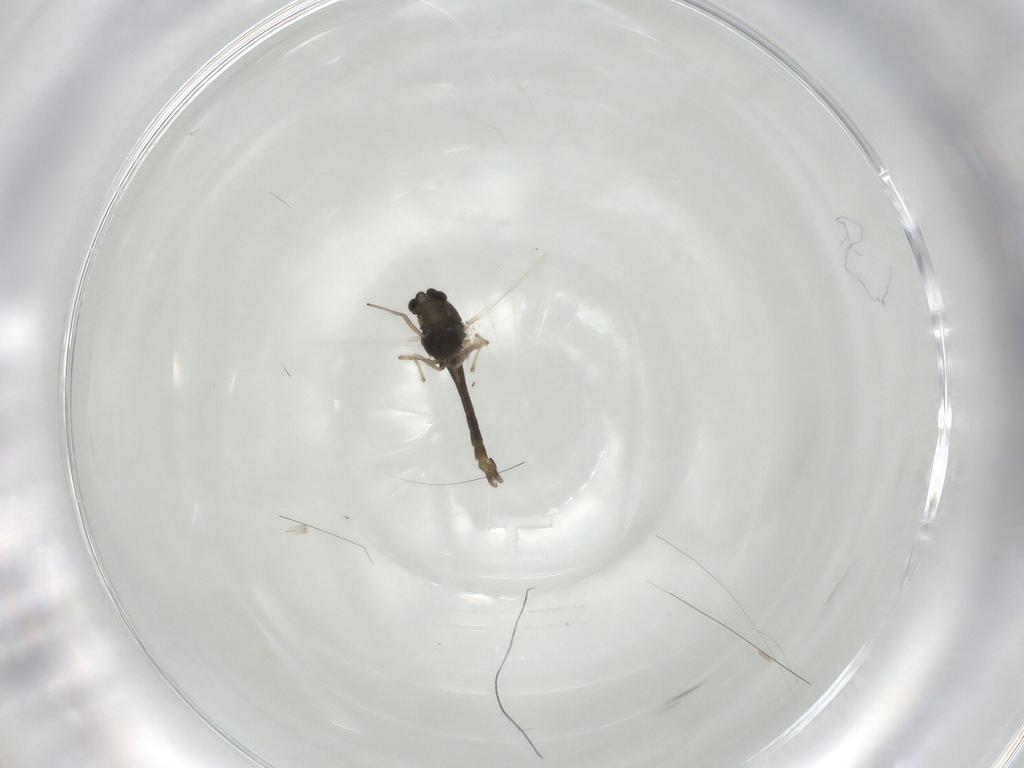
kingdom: Animalia
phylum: Arthropoda
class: Insecta
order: Diptera
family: Chironomidae
